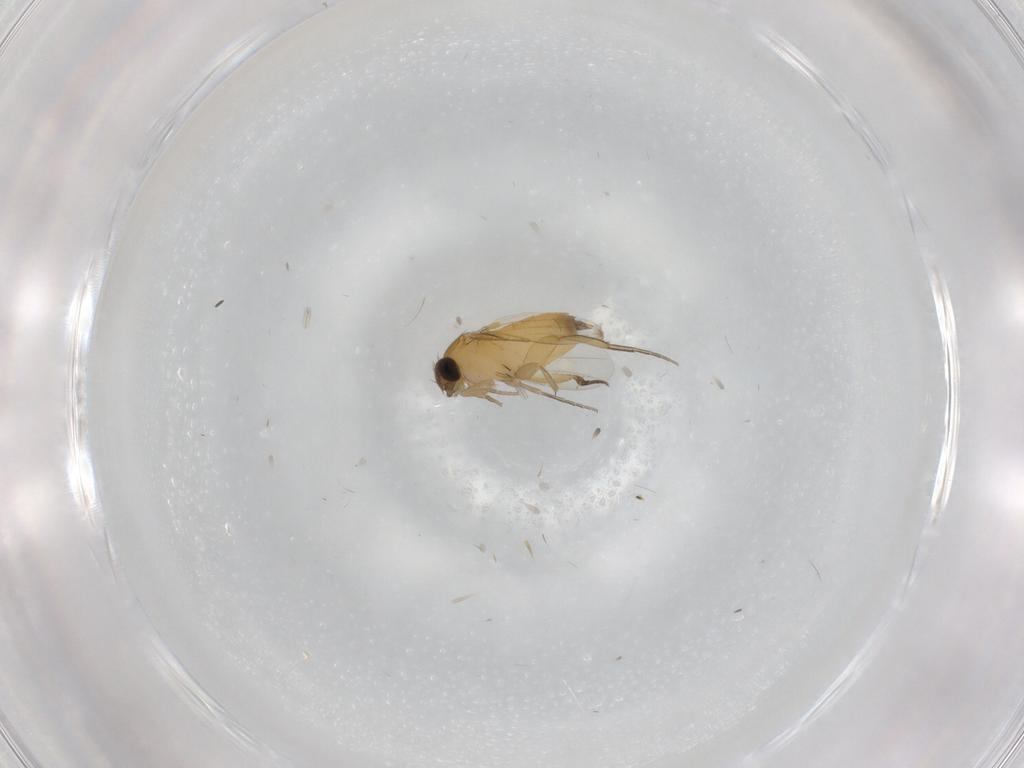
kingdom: Animalia
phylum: Arthropoda
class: Insecta
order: Diptera
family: Phoridae
